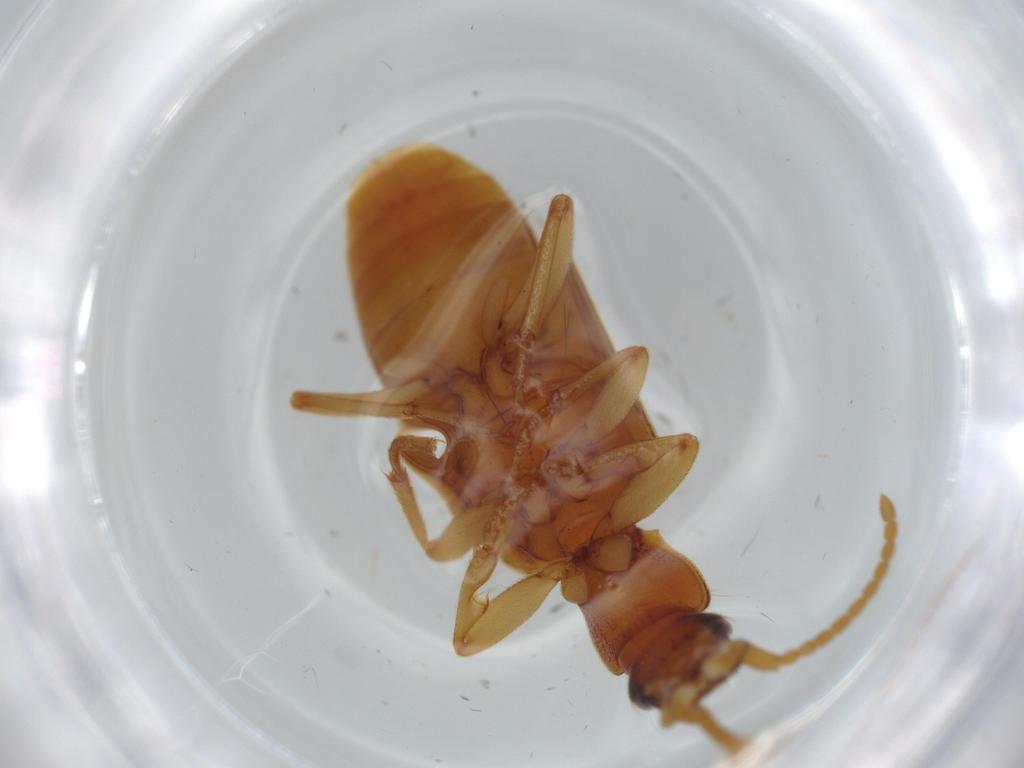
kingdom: Animalia
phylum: Arthropoda
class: Insecta
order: Coleoptera
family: Carabidae
